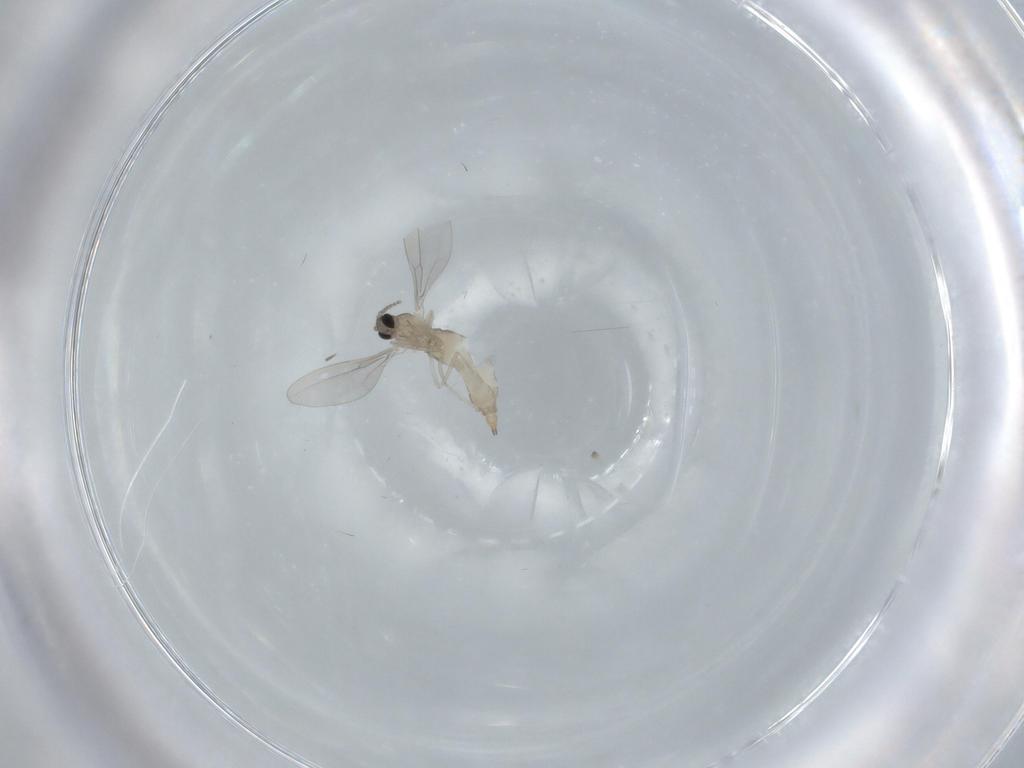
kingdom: Animalia
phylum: Arthropoda
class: Insecta
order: Diptera
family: Cecidomyiidae
